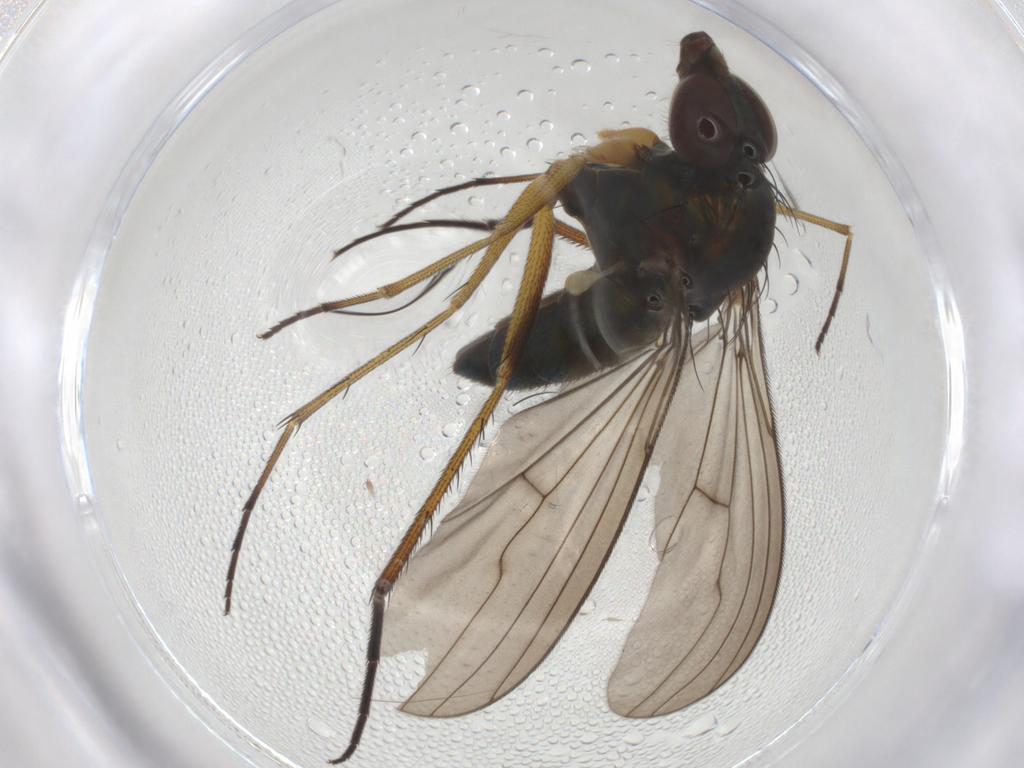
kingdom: Animalia
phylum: Arthropoda
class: Insecta
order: Diptera
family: Dolichopodidae
